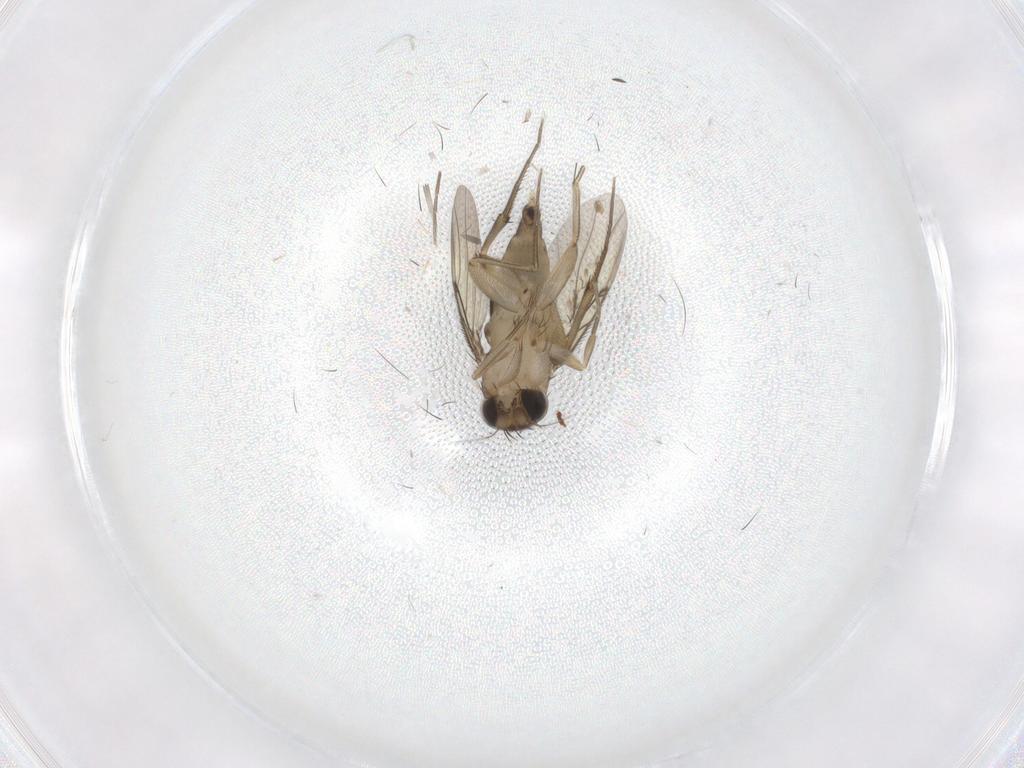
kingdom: Animalia
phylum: Arthropoda
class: Insecta
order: Diptera
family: Phoridae
